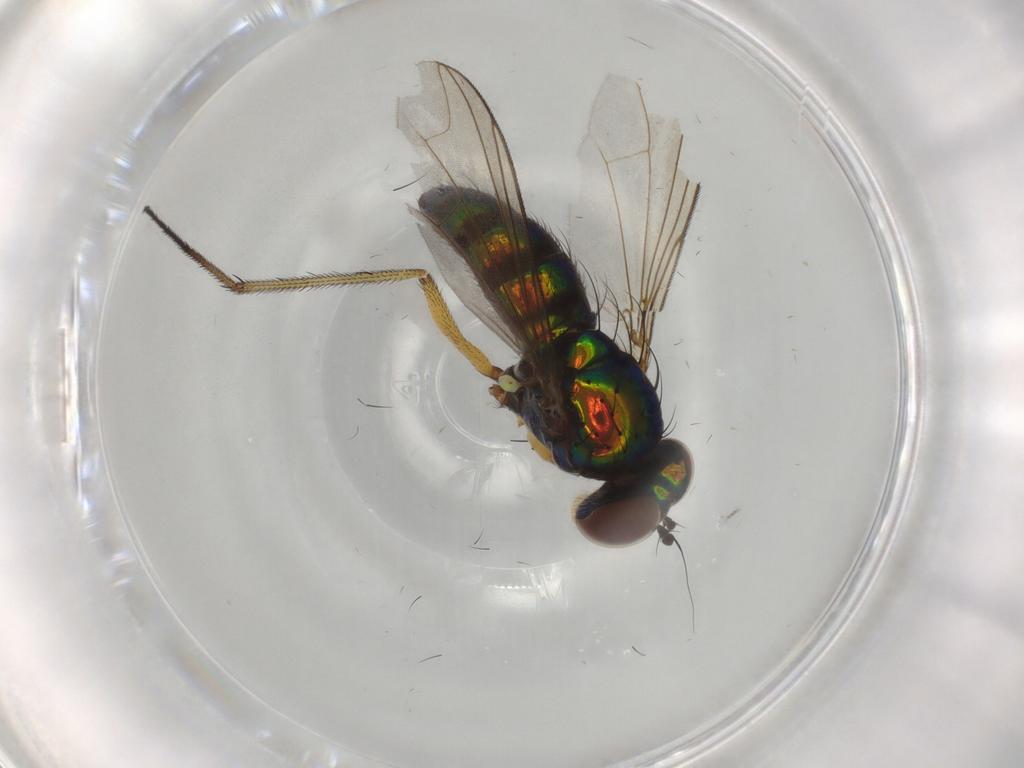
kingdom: Animalia
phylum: Arthropoda
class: Insecta
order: Diptera
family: Dolichopodidae
